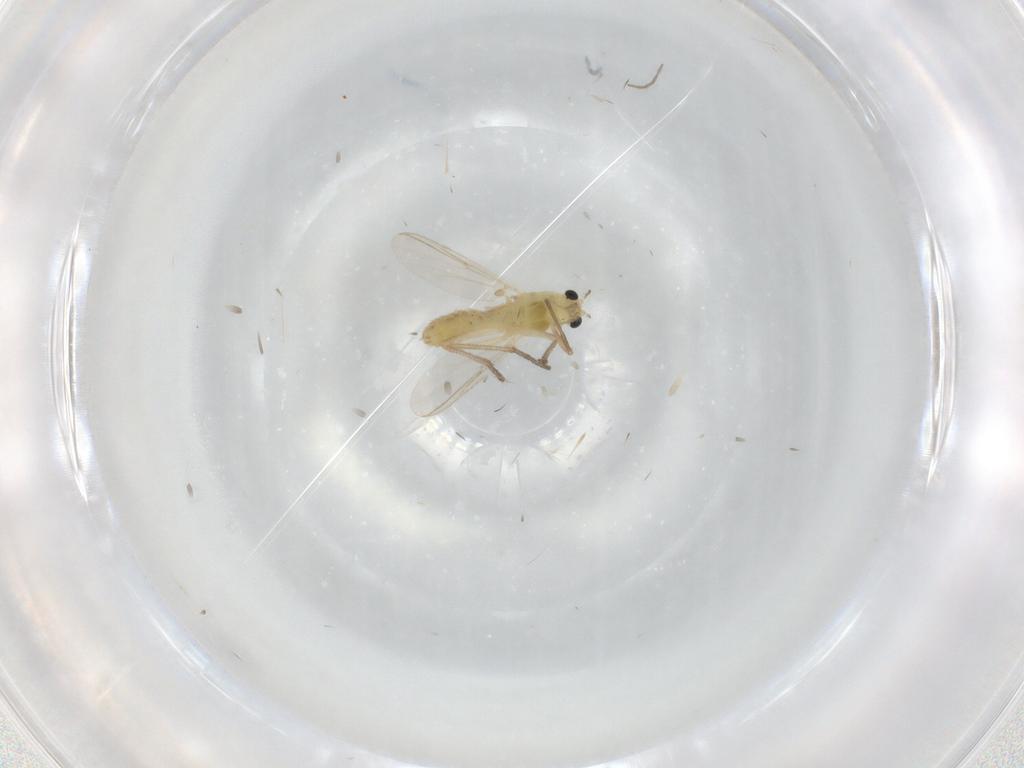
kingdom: Animalia
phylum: Arthropoda
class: Insecta
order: Diptera
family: Chironomidae
